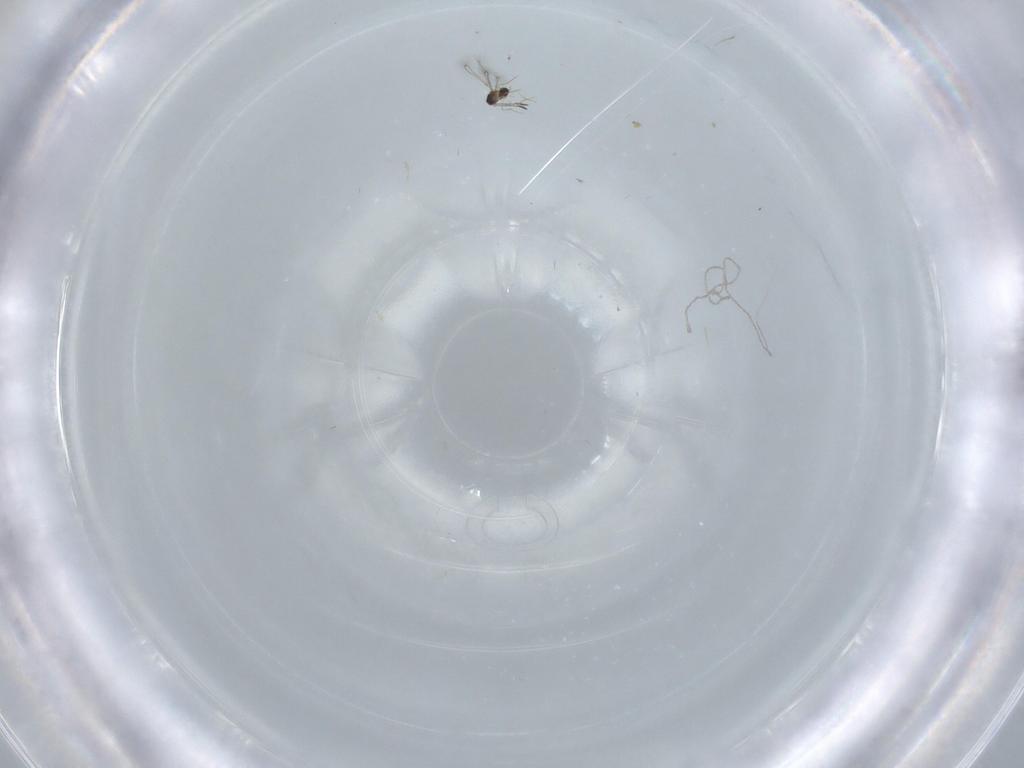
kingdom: Animalia
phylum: Arthropoda
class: Insecta
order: Hymenoptera
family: Mymaridae
